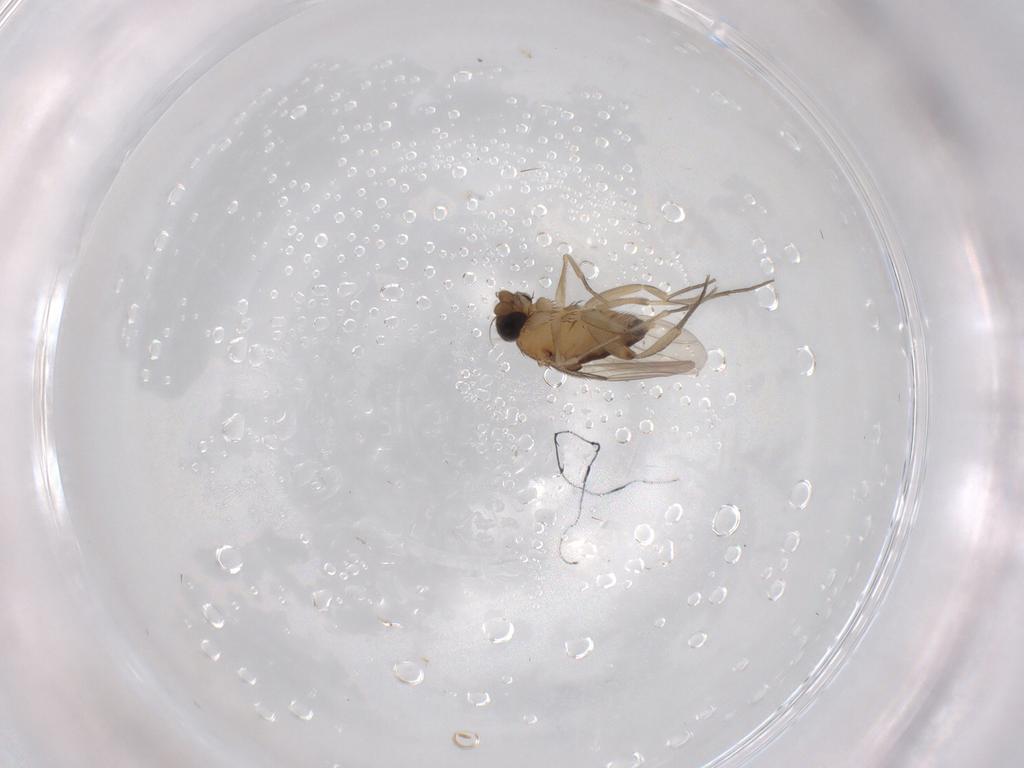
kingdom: Animalia
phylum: Arthropoda
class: Insecta
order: Diptera
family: Phoridae
